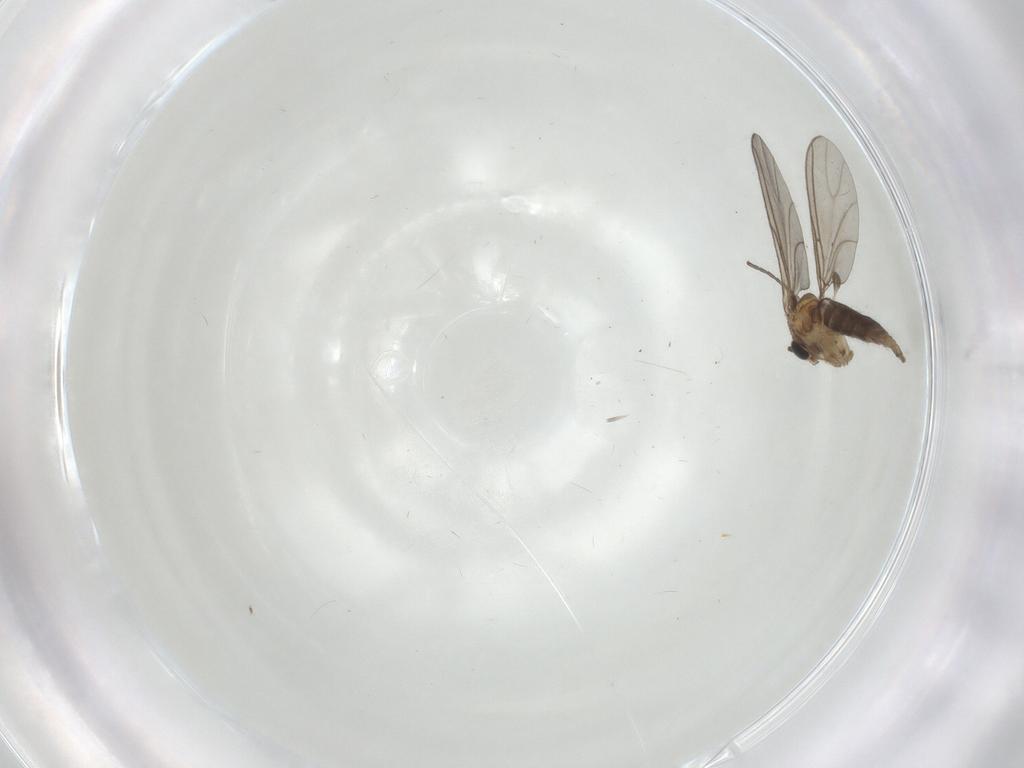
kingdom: Animalia
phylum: Arthropoda
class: Insecta
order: Diptera
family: Sciaridae
